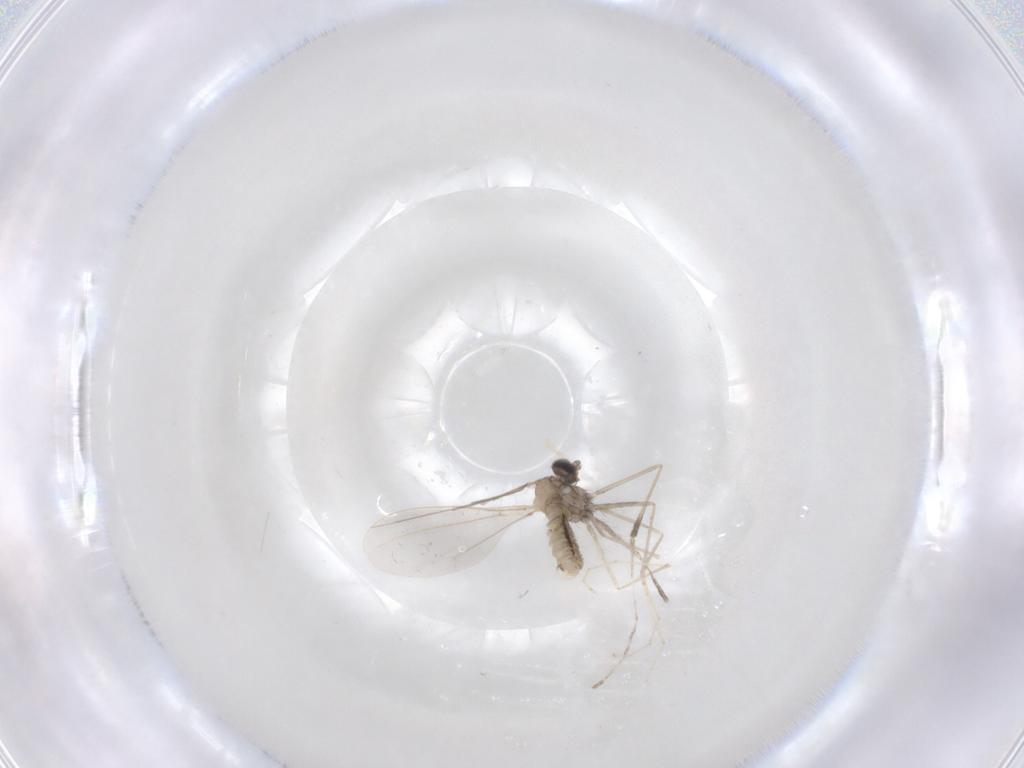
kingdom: Animalia
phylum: Arthropoda
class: Insecta
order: Diptera
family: Cecidomyiidae
